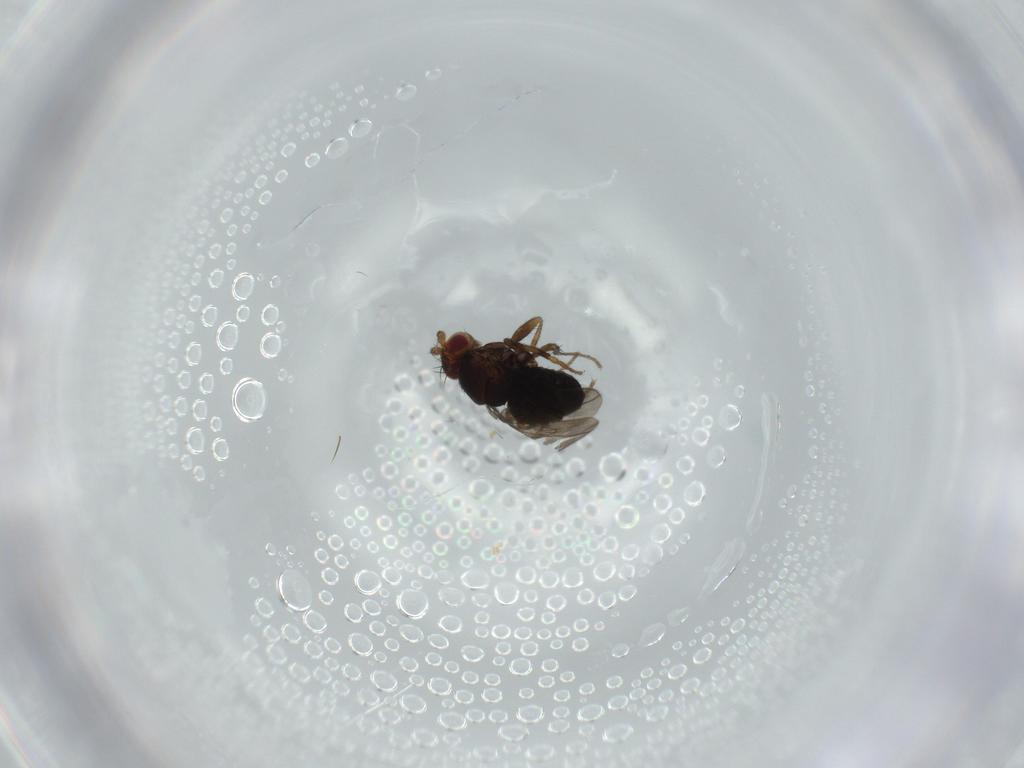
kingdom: Animalia
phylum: Arthropoda
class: Insecta
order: Diptera
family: Sphaeroceridae
